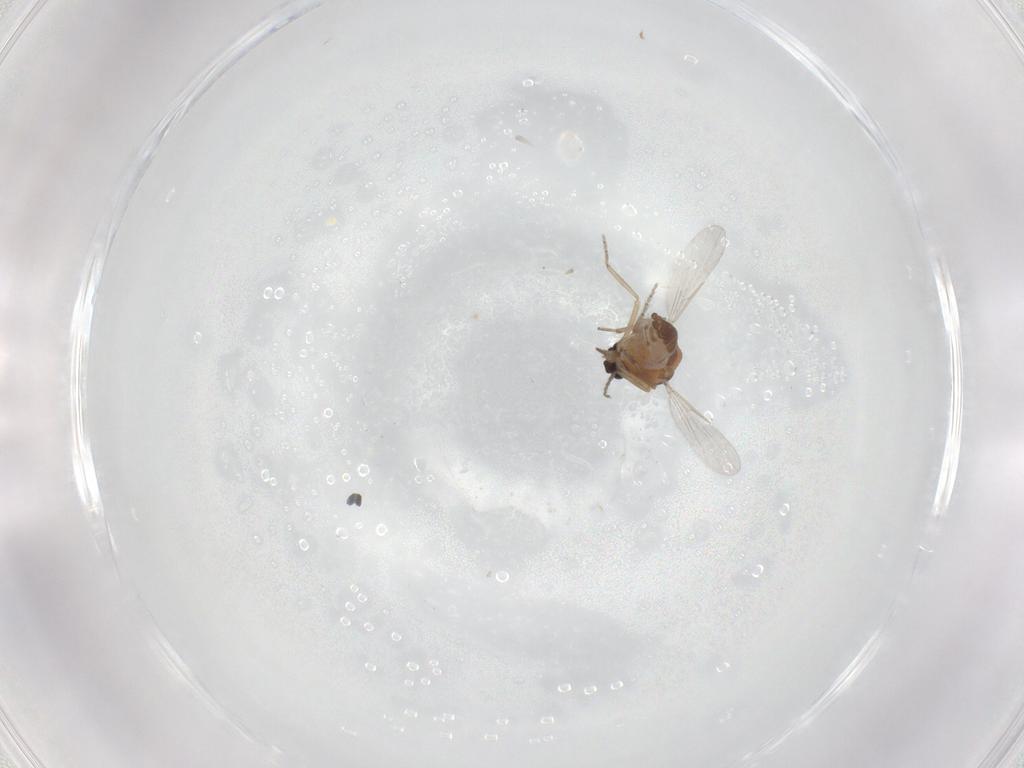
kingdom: Animalia
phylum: Arthropoda
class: Insecta
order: Diptera
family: Ceratopogonidae
